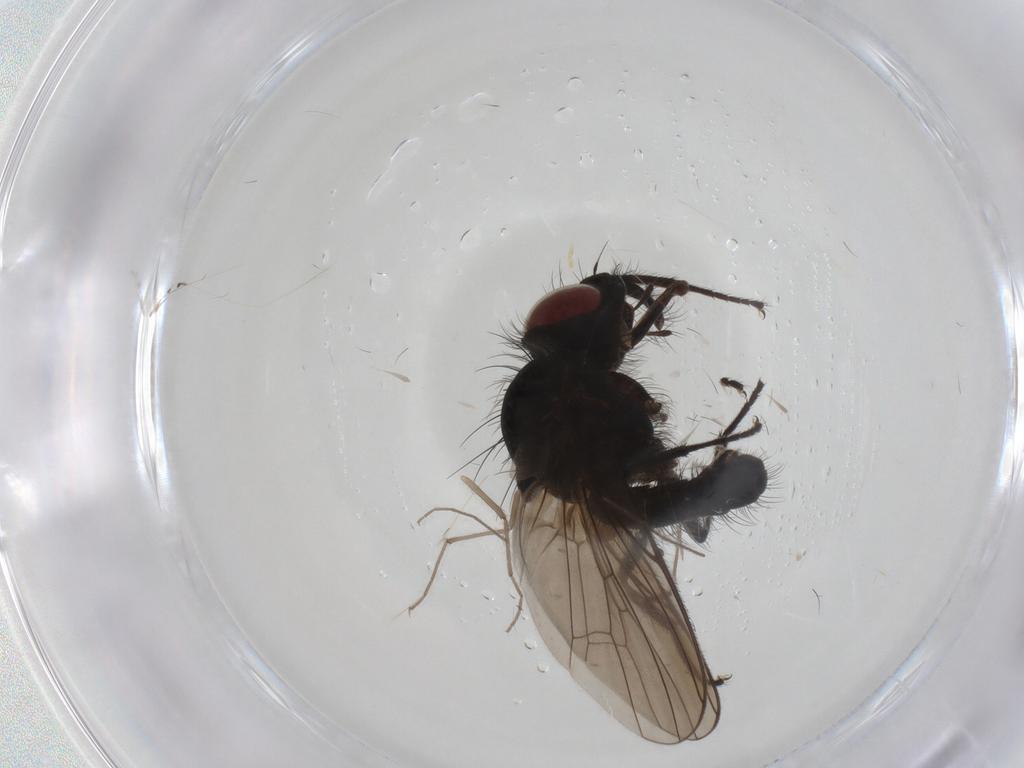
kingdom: Animalia
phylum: Arthropoda
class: Insecta
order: Diptera
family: Anthomyiidae
